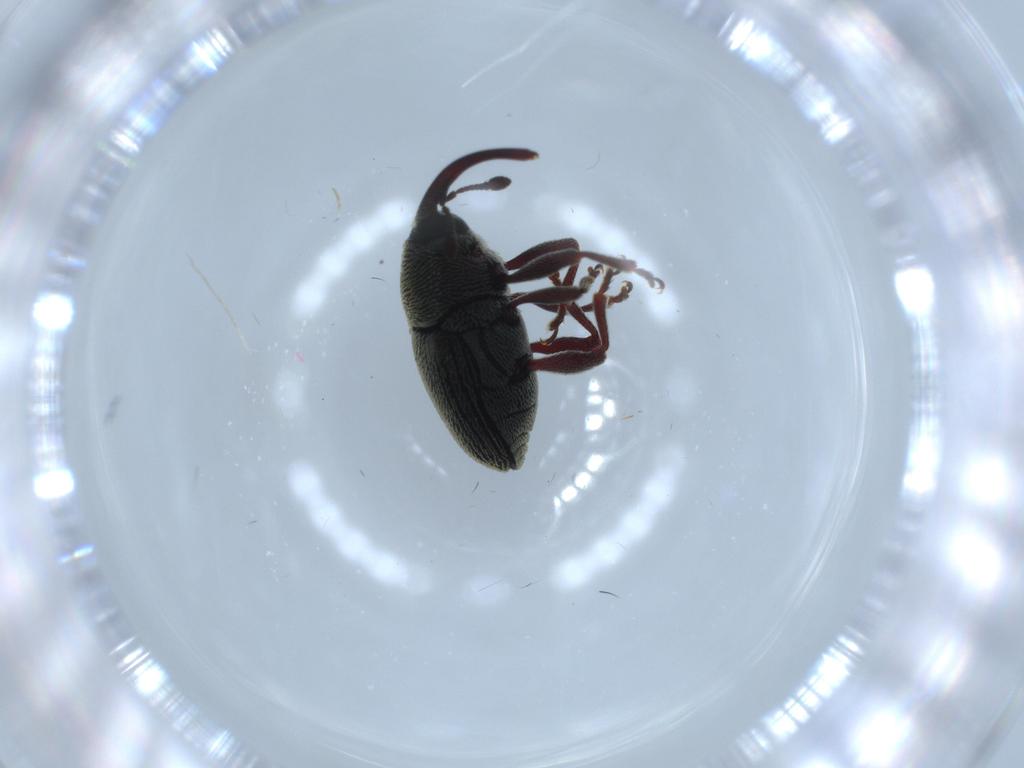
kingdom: Animalia
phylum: Arthropoda
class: Insecta
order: Coleoptera
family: Curculionidae
